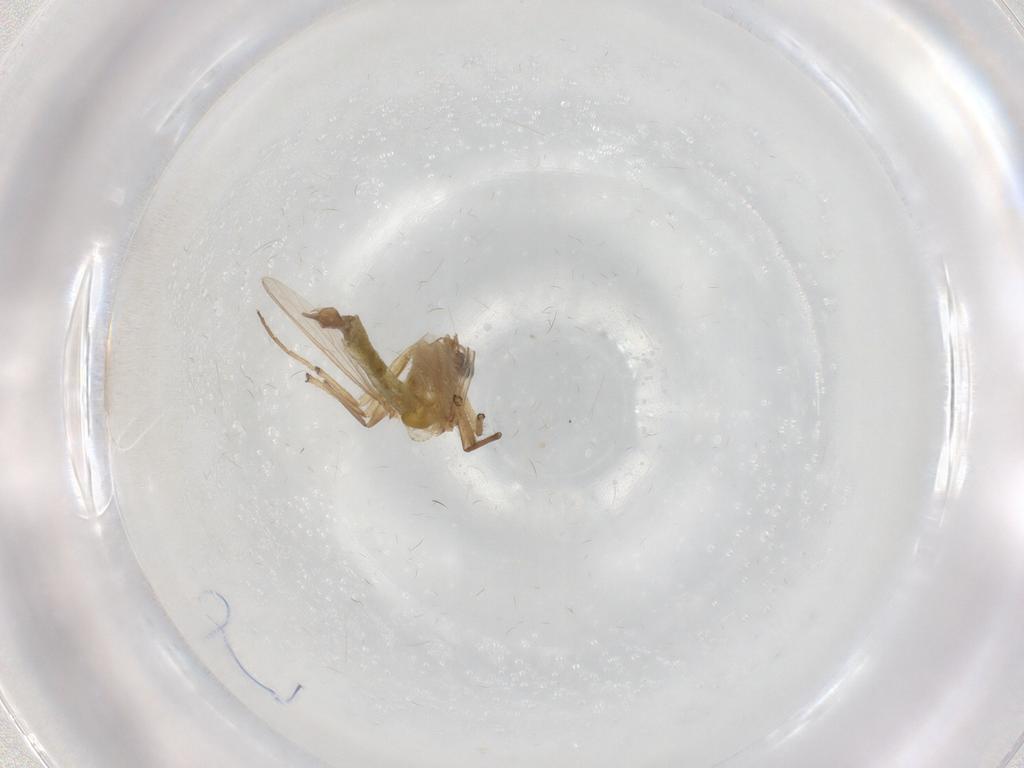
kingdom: Animalia
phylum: Arthropoda
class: Insecta
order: Diptera
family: Chironomidae
